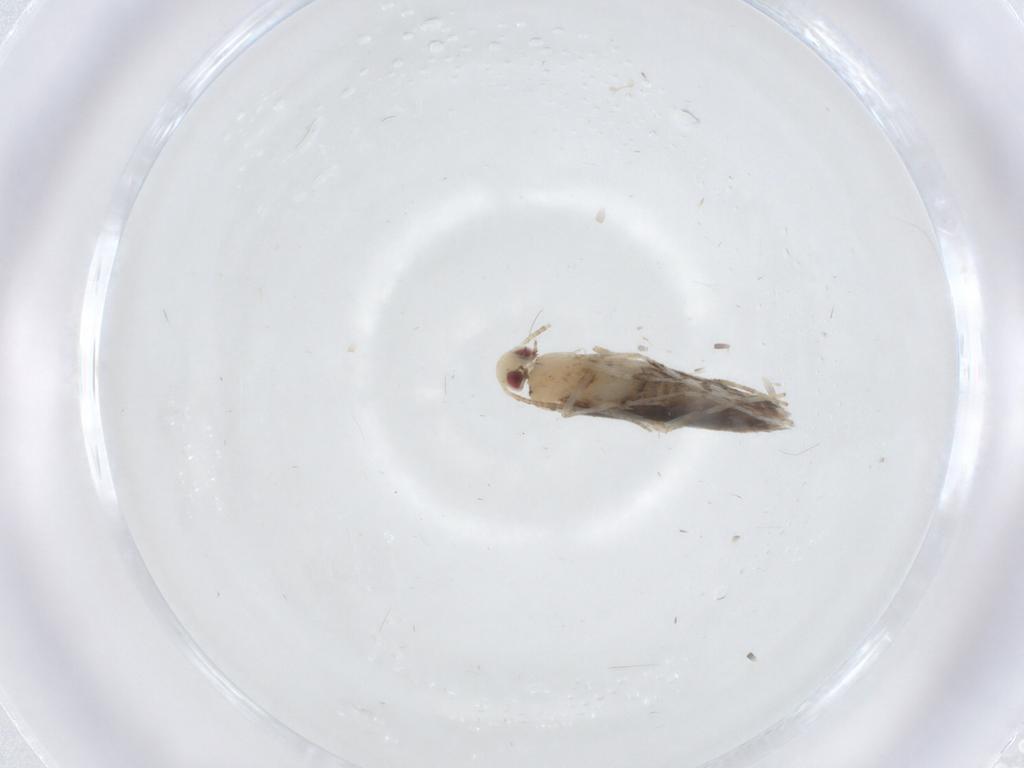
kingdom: Animalia
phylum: Arthropoda
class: Insecta
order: Lepidoptera
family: Gracillariidae
